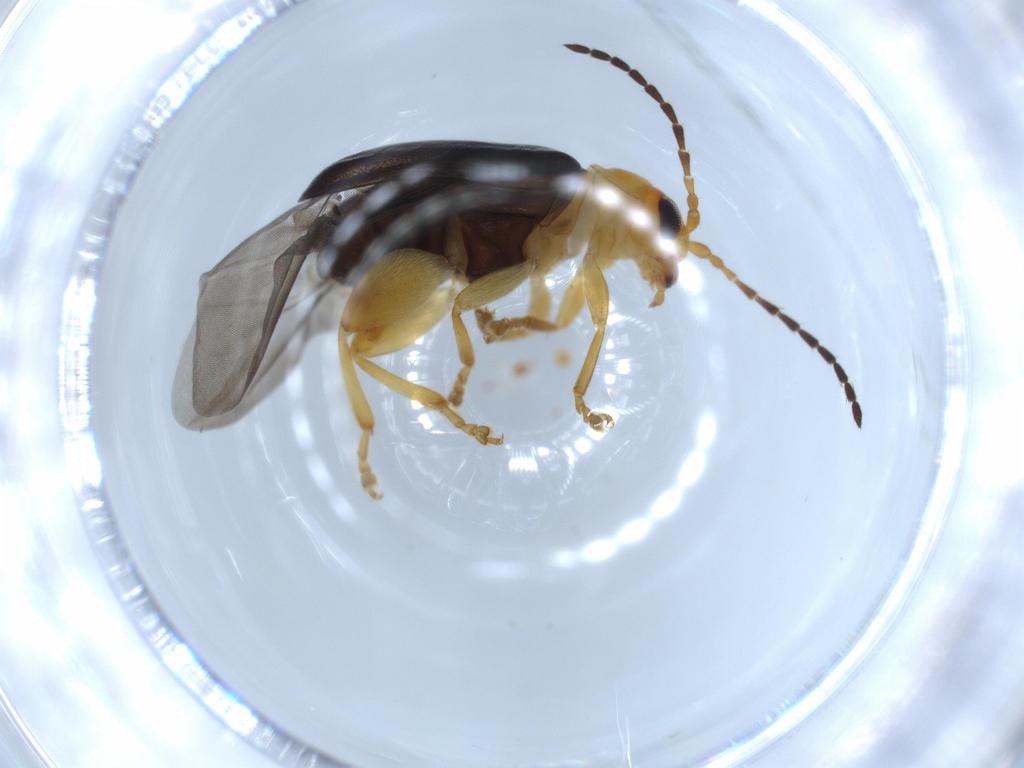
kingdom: Animalia
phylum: Arthropoda
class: Insecta
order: Coleoptera
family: Chrysomelidae
